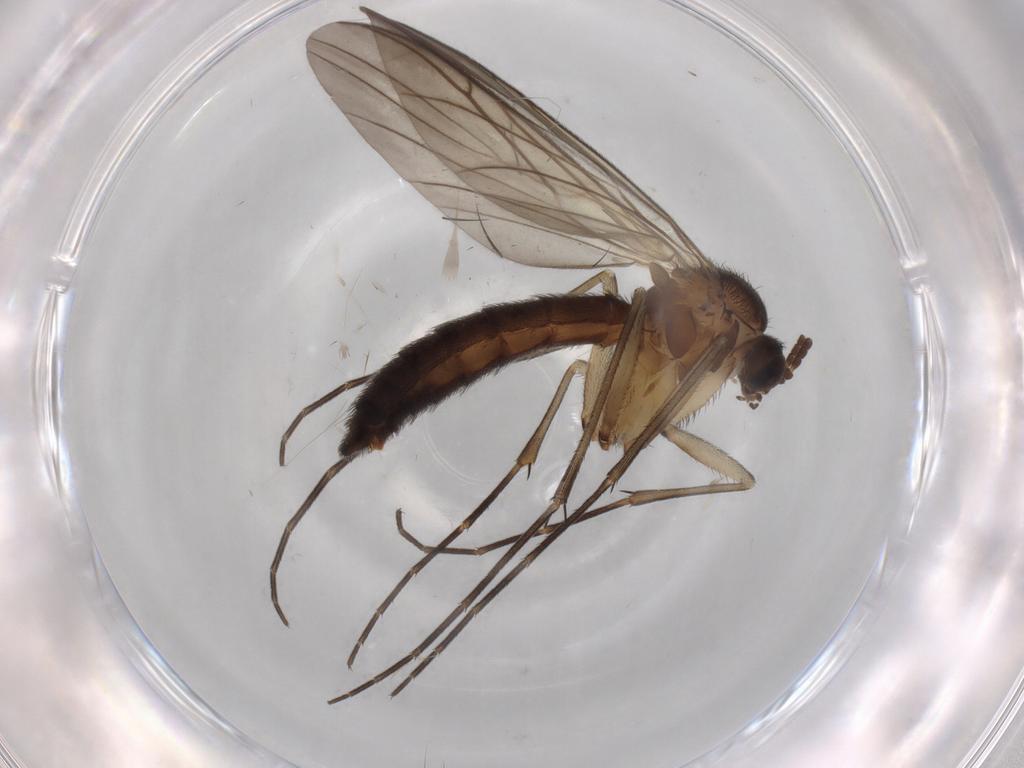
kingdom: Animalia
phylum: Arthropoda
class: Insecta
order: Diptera
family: Keroplatidae
